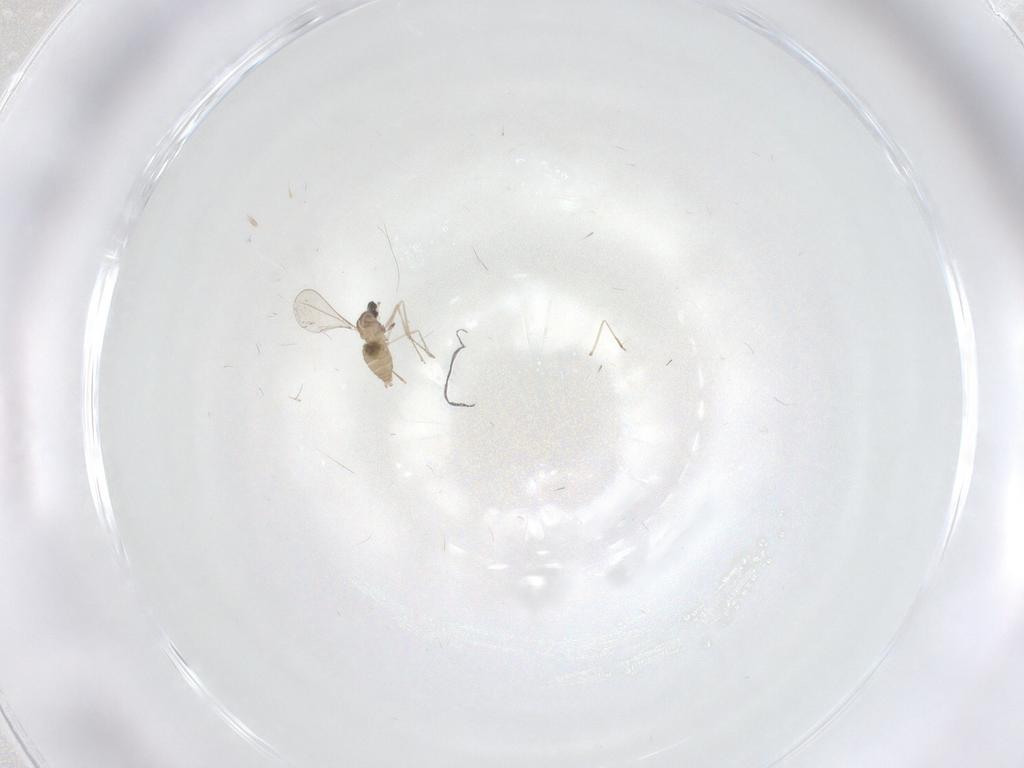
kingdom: Animalia
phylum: Arthropoda
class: Insecta
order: Diptera
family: Cecidomyiidae
